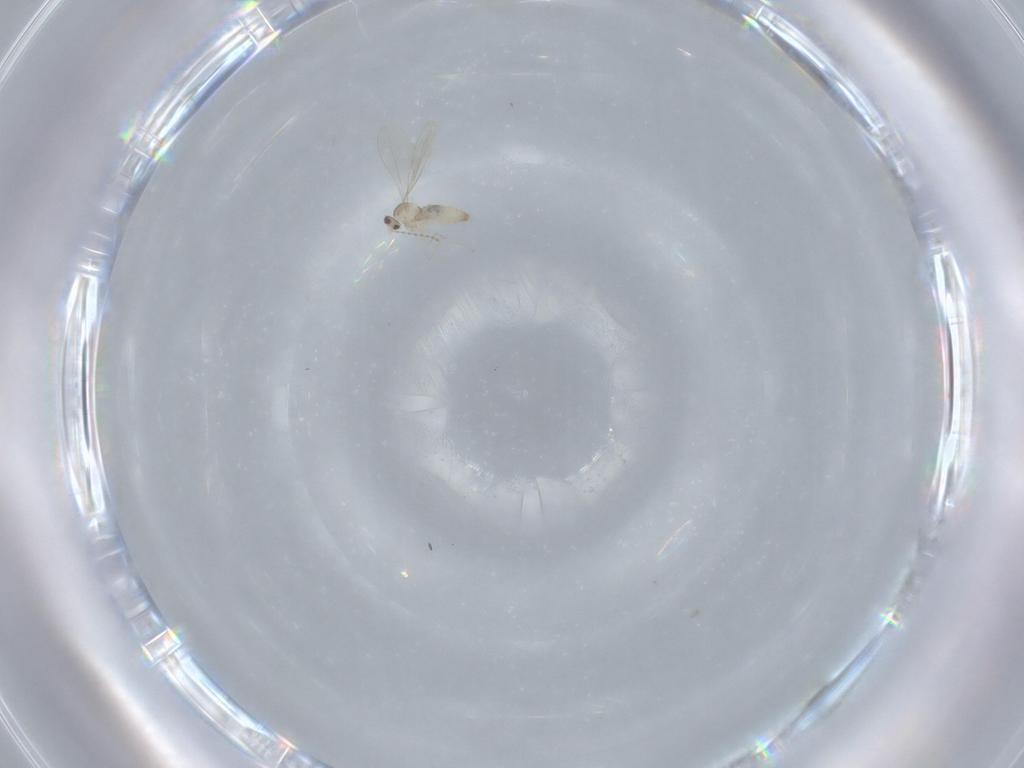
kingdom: Animalia
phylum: Arthropoda
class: Insecta
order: Diptera
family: Cecidomyiidae
